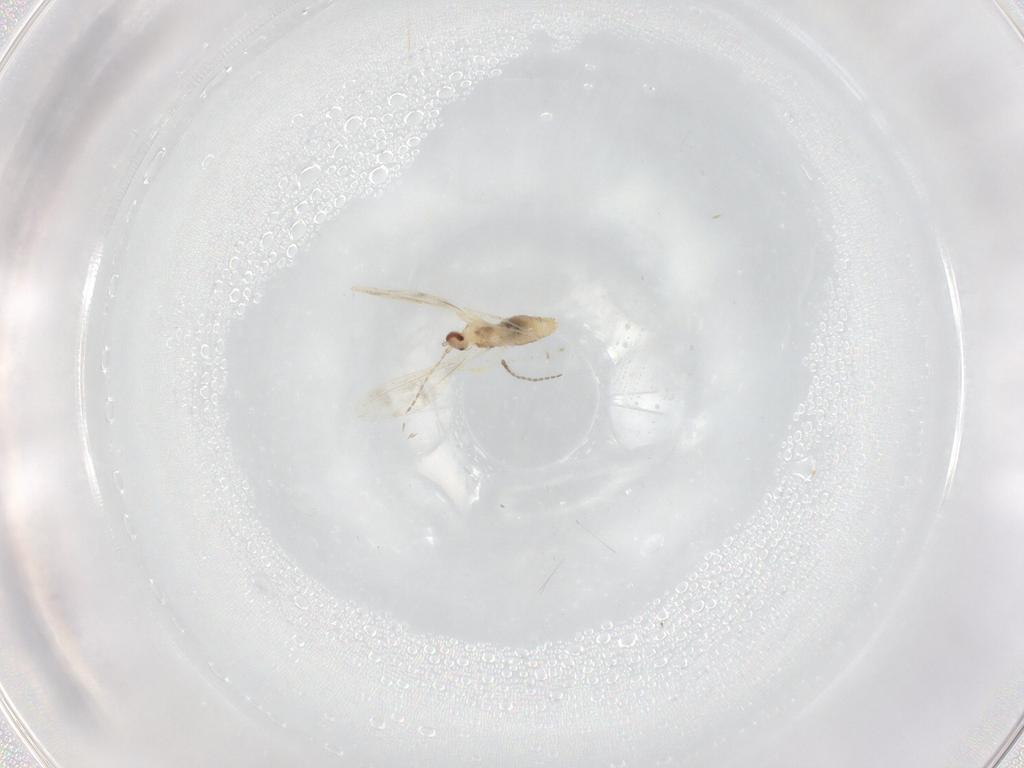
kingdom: Animalia
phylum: Arthropoda
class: Insecta
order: Diptera
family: Cecidomyiidae
